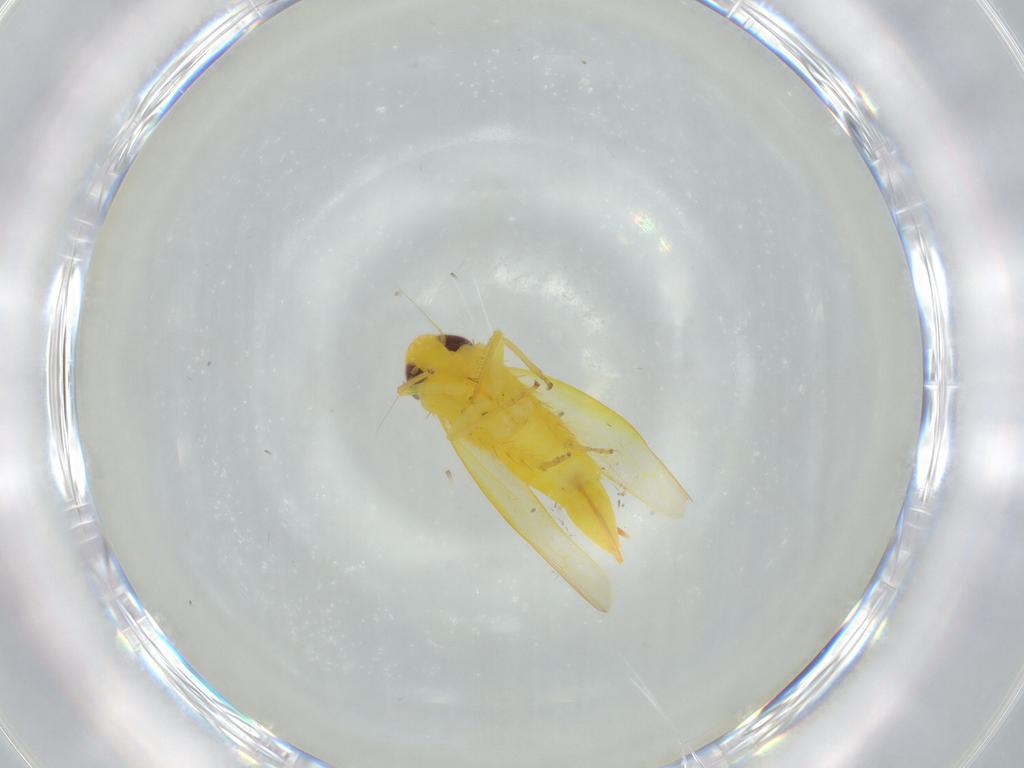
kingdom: Animalia
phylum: Arthropoda
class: Insecta
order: Hemiptera
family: Cicadellidae
